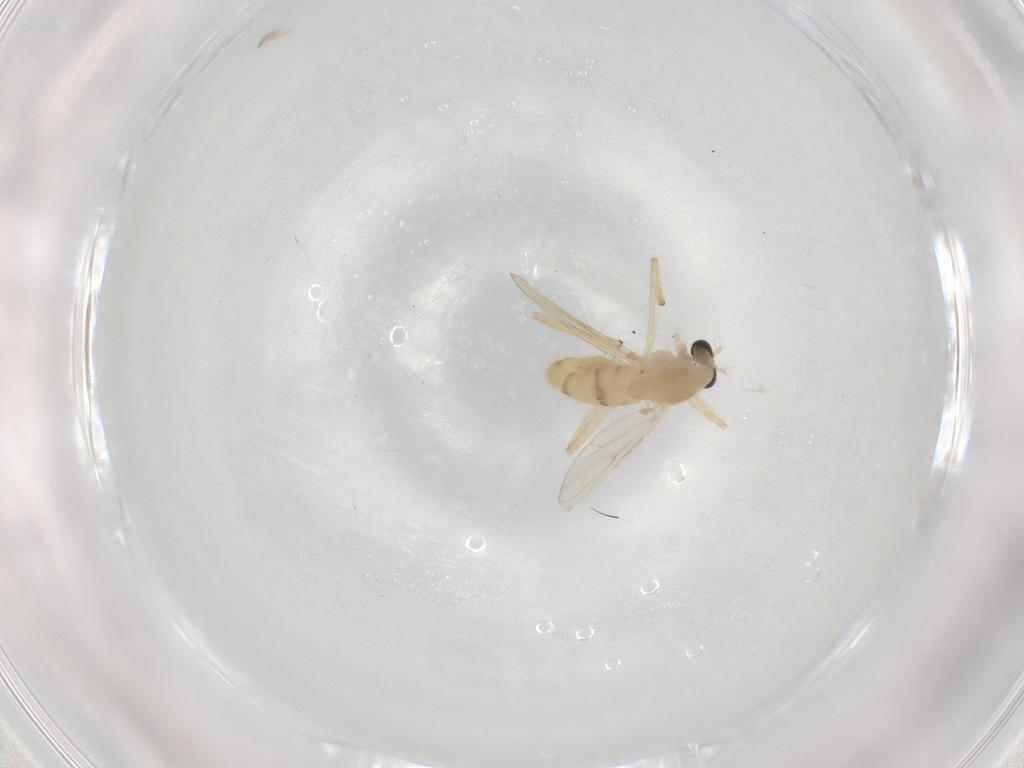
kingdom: Animalia
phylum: Arthropoda
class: Insecta
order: Diptera
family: Chironomidae
